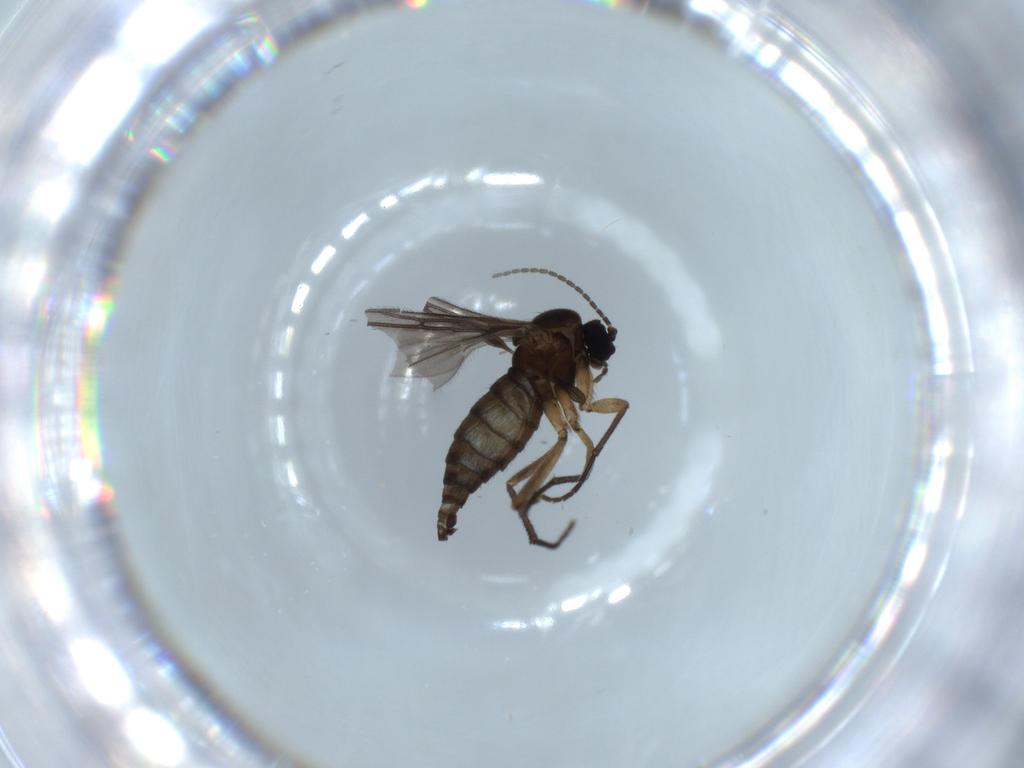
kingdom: Animalia
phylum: Arthropoda
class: Insecta
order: Diptera
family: Sciaridae
